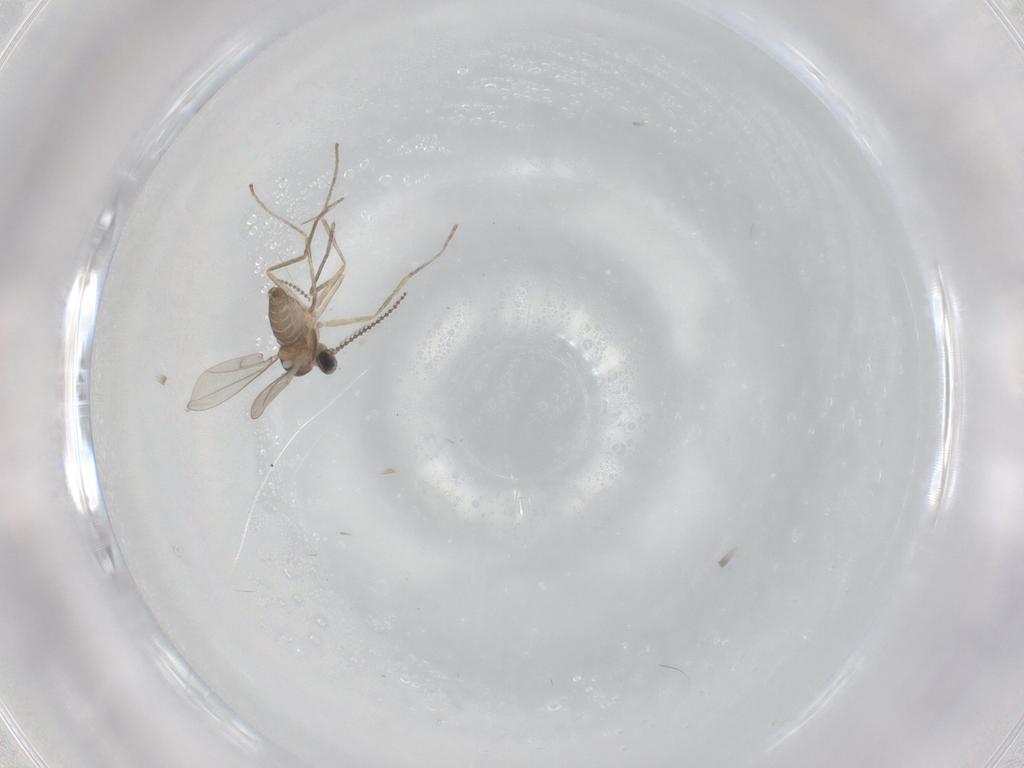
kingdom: Animalia
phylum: Arthropoda
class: Insecta
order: Diptera
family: Cecidomyiidae
